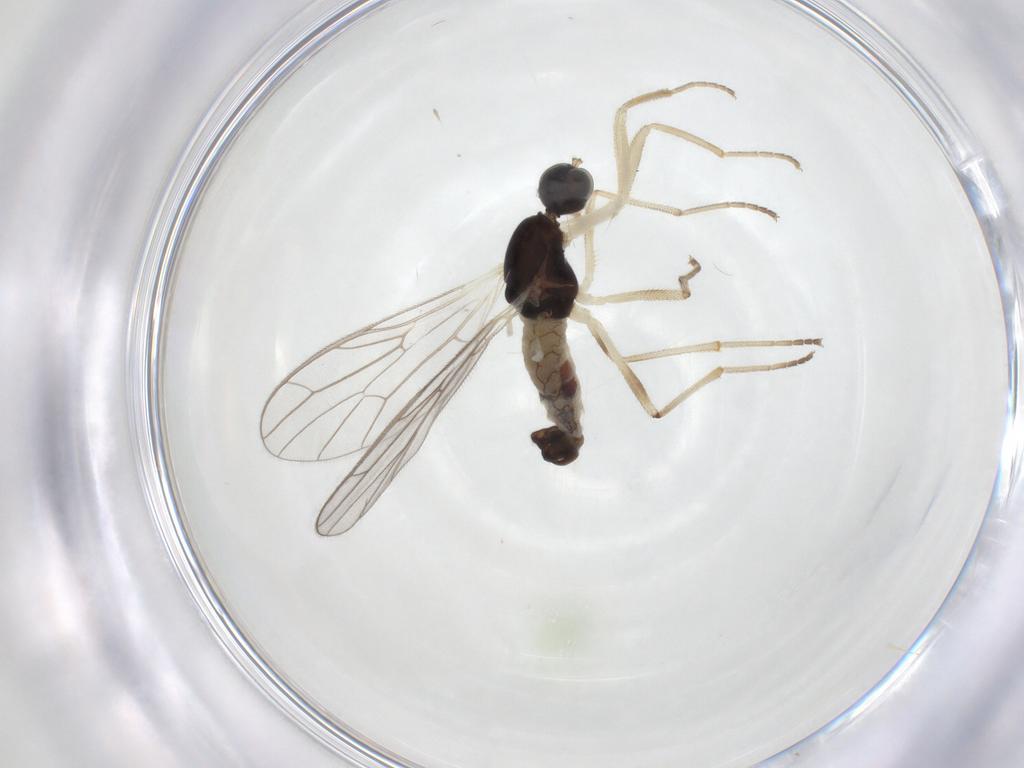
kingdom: Animalia
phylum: Arthropoda
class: Insecta
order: Diptera
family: Empididae
